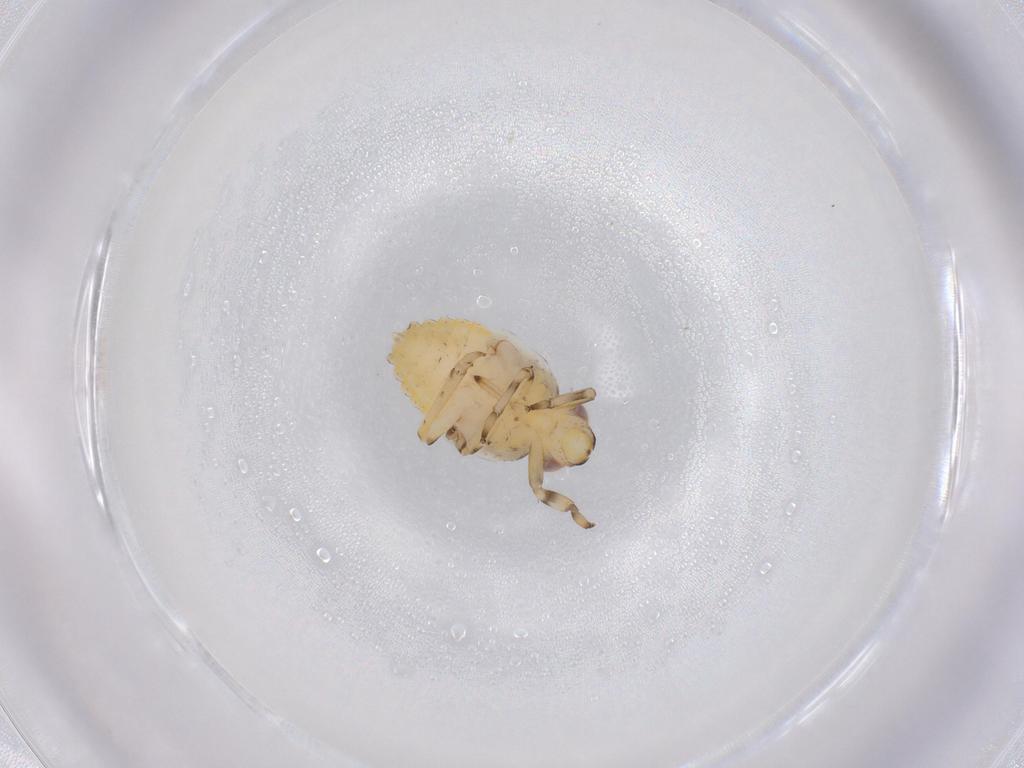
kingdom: Animalia
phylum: Arthropoda
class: Insecta
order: Hemiptera
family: Issidae
